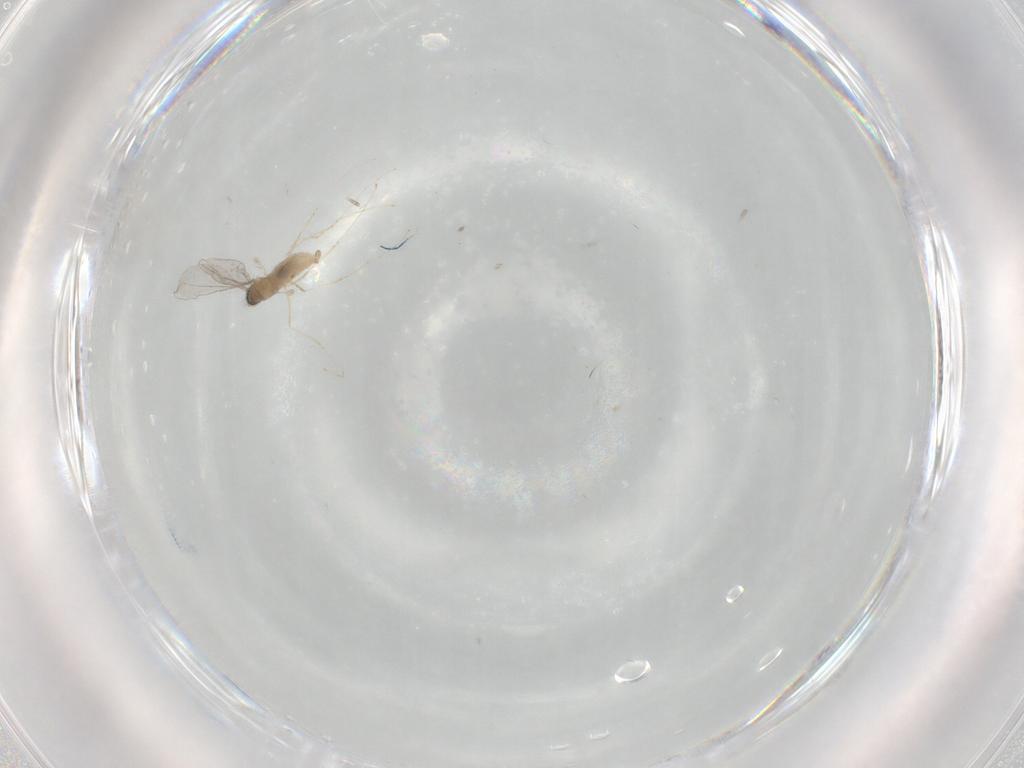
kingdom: Animalia
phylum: Arthropoda
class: Insecta
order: Diptera
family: Cecidomyiidae
